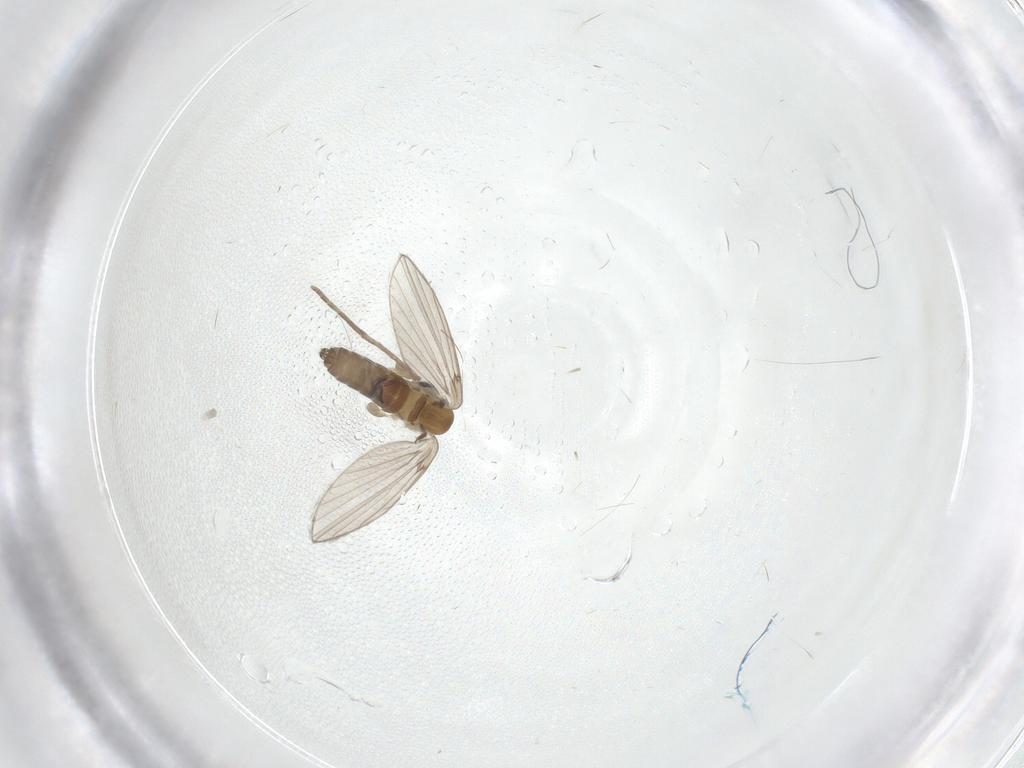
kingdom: Animalia
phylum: Arthropoda
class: Insecta
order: Diptera
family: Dolichopodidae
